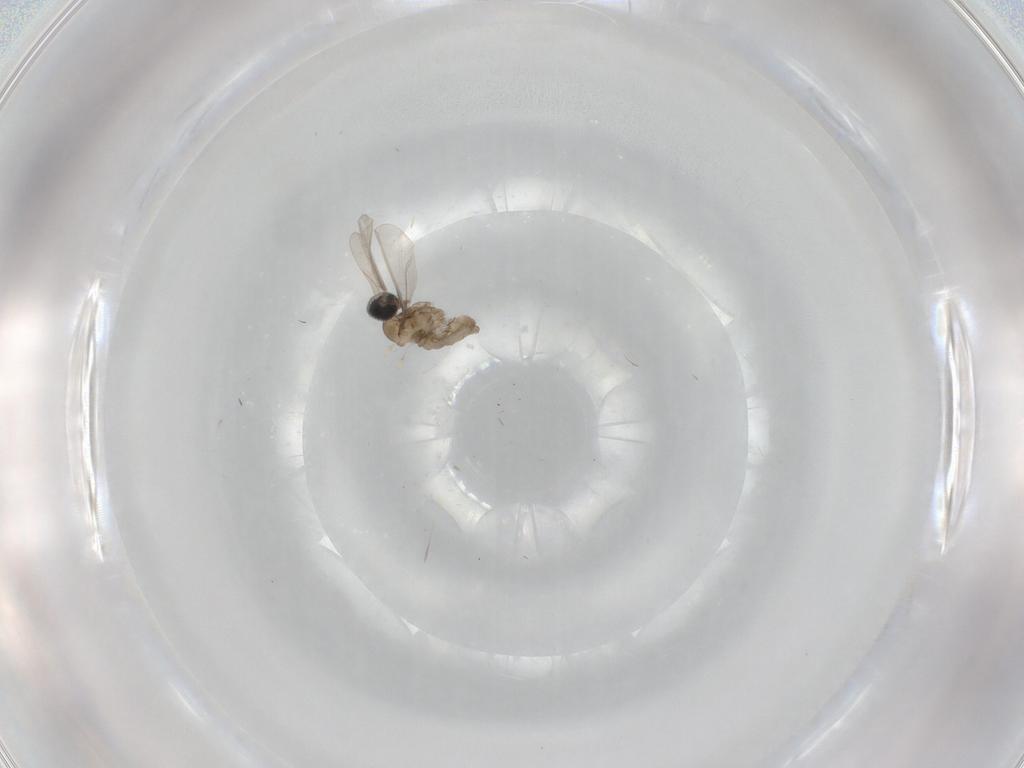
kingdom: Animalia
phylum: Arthropoda
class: Insecta
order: Diptera
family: Cecidomyiidae
